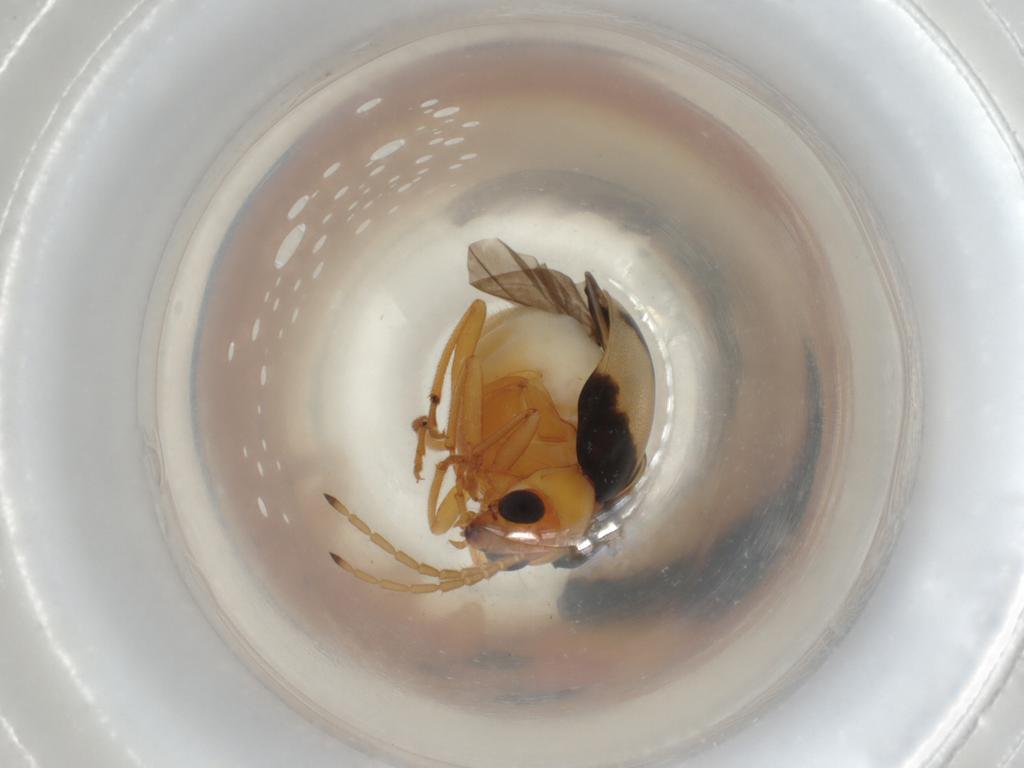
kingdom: Animalia
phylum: Arthropoda
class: Insecta
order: Coleoptera
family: Chrysomelidae
